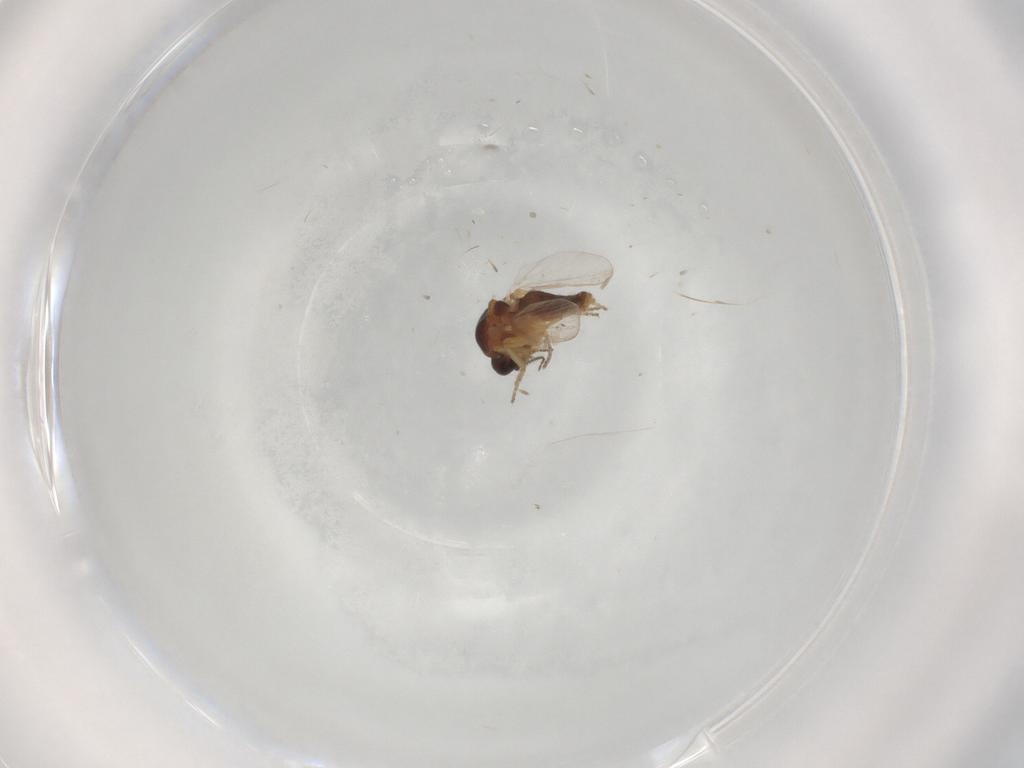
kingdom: Animalia
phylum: Arthropoda
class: Insecta
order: Diptera
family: Ceratopogonidae
